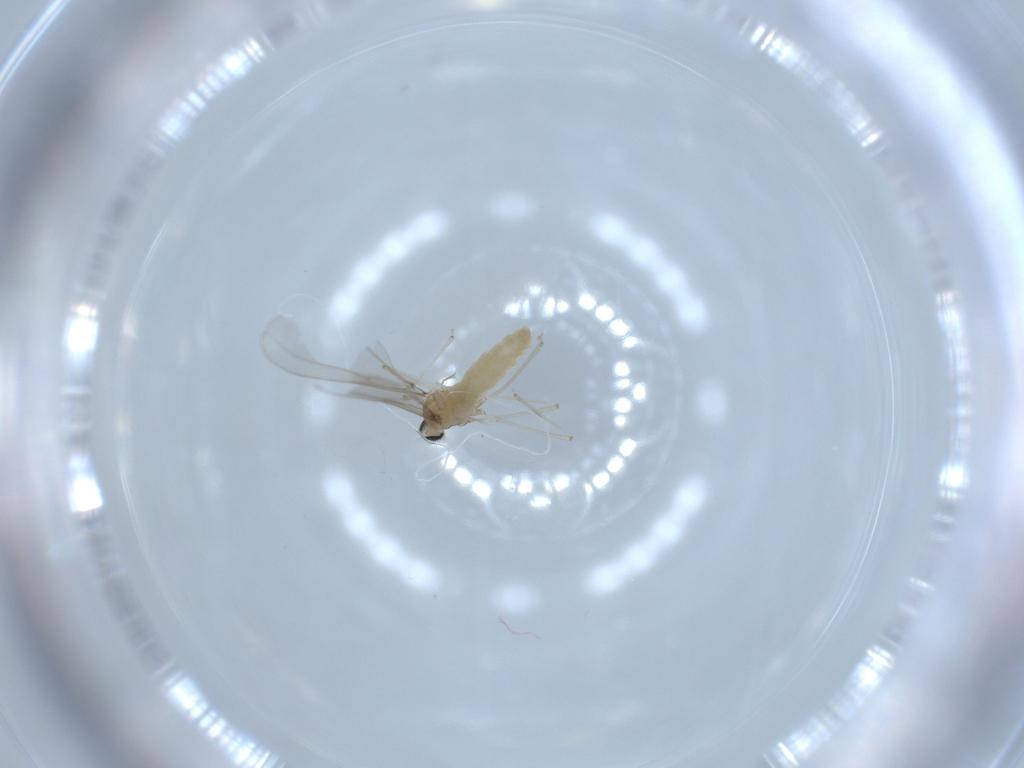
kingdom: Animalia
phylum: Arthropoda
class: Insecta
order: Diptera
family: Cecidomyiidae
